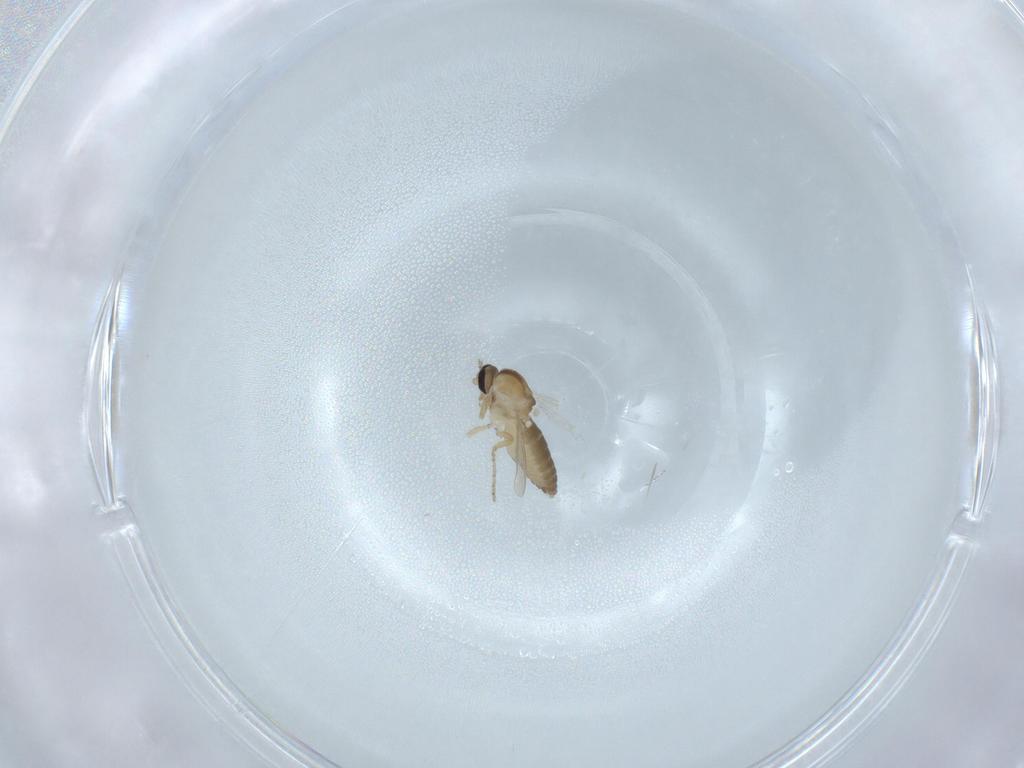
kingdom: Animalia
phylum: Arthropoda
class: Insecta
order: Diptera
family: Ceratopogonidae
